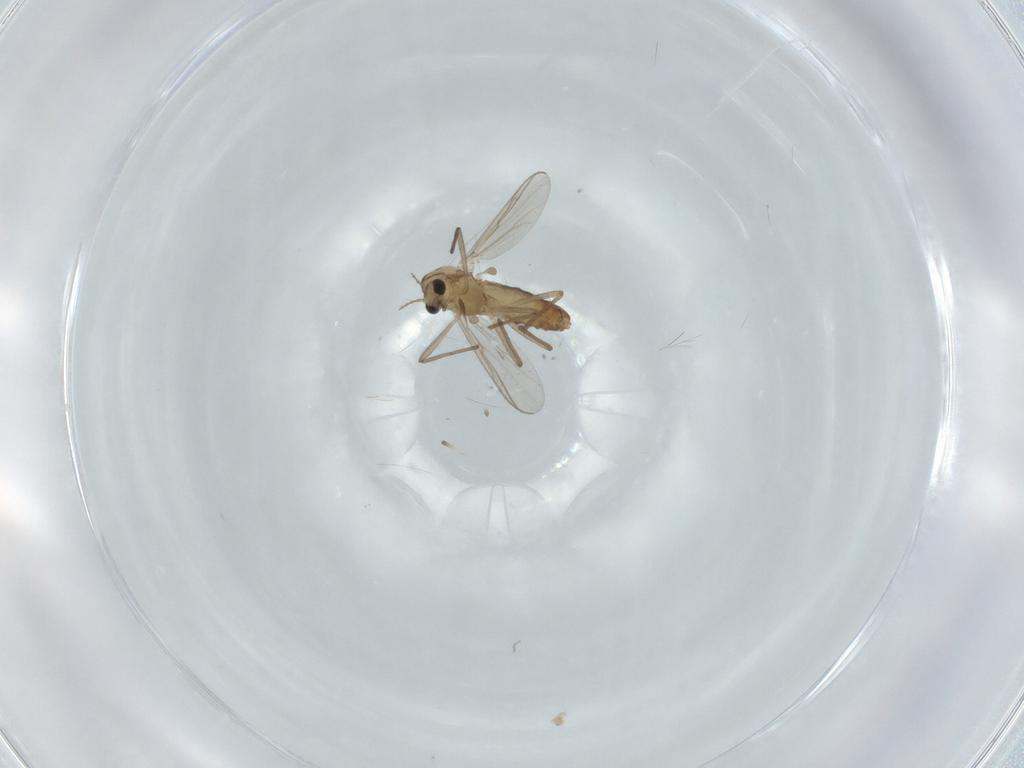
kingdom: Animalia
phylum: Arthropoda
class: Insecta
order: Diptera
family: Chironomidae
